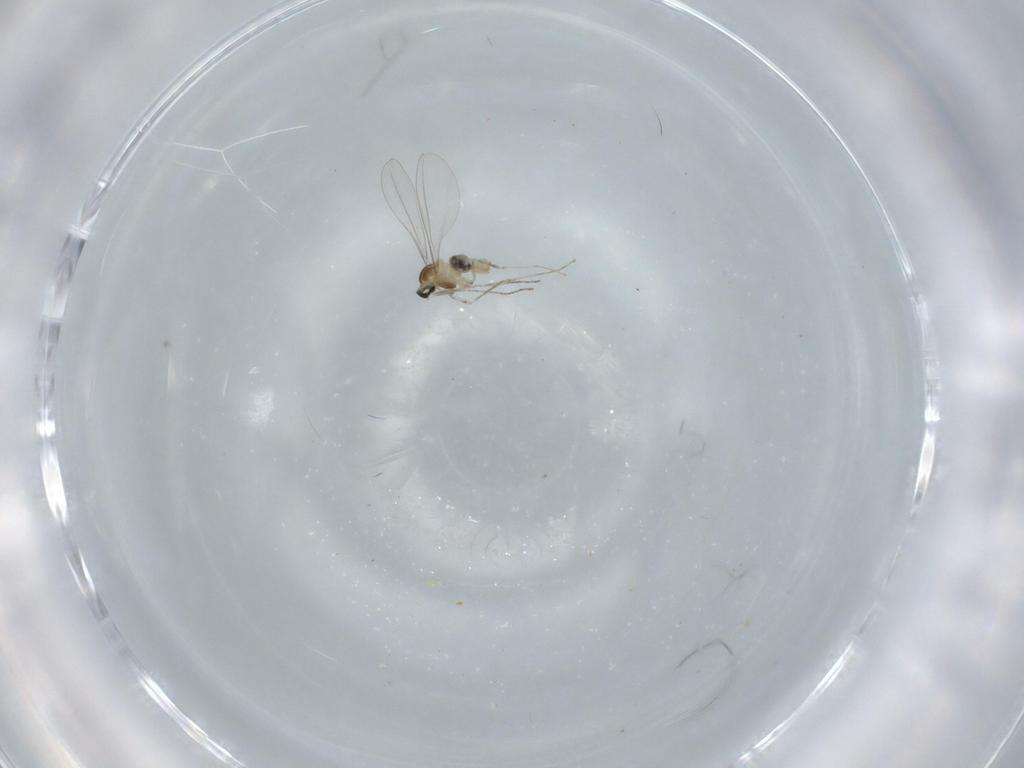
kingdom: Animalia
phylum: Arthropoda
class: Insecta
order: Diptera
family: Cecidomyiidae
